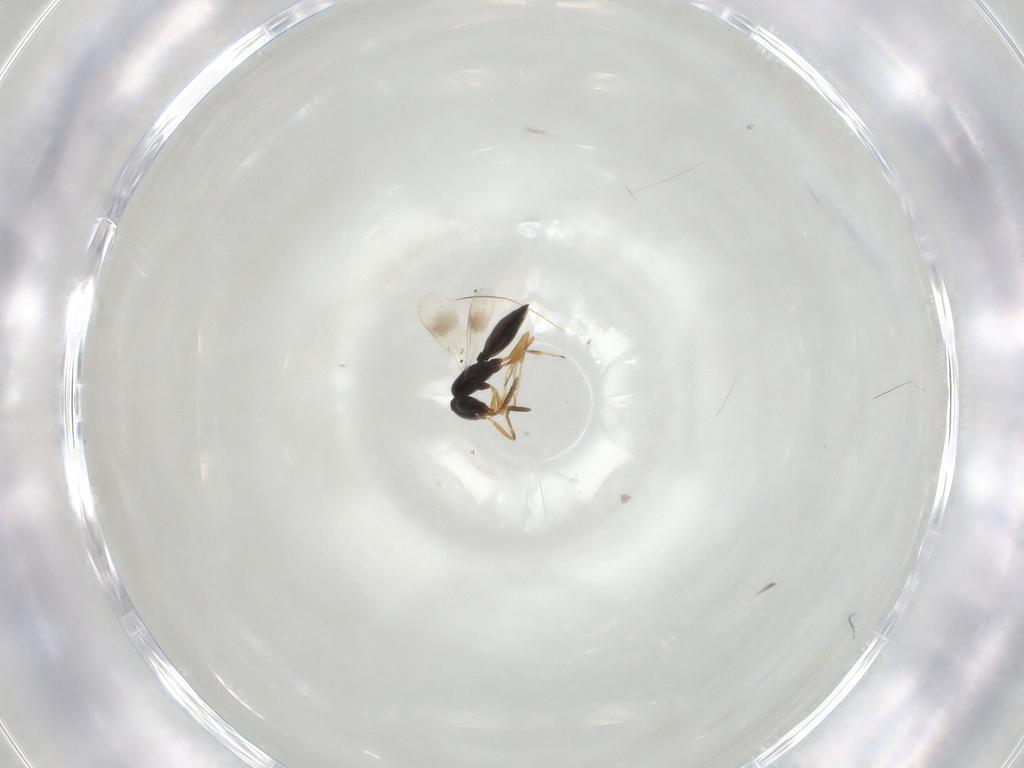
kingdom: Animalia
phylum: Arthropoda
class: Insecta
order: Hymenoptera
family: Scelionidae
